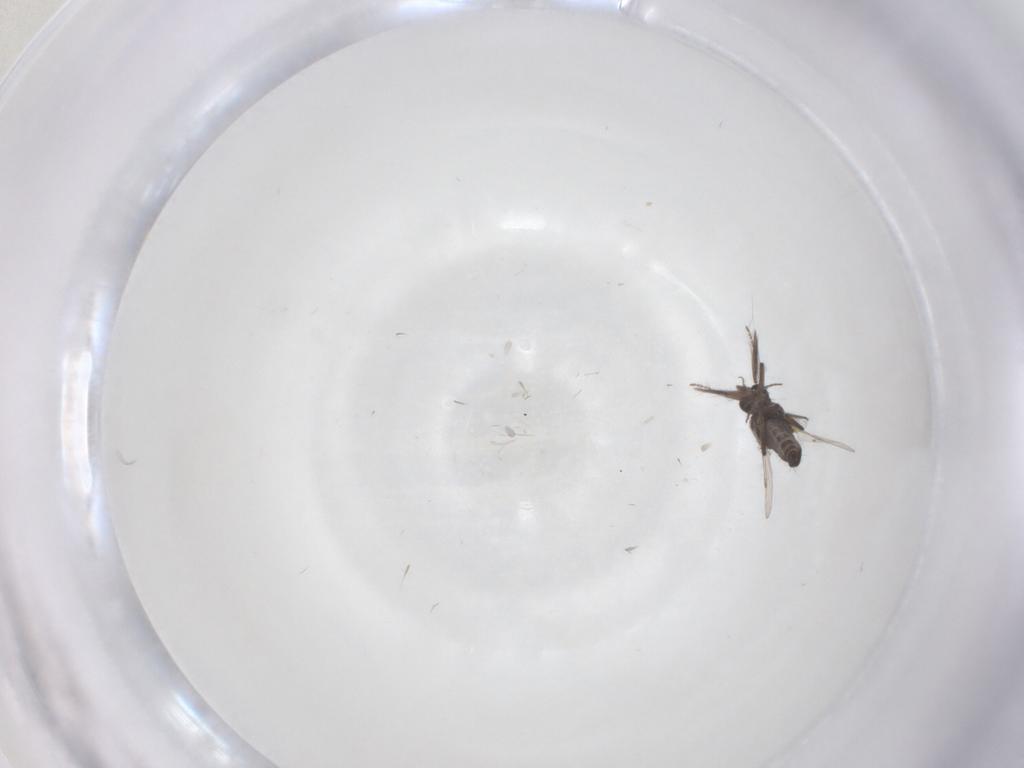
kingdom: Animalia
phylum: Arthropoda
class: Insecta
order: Diptera
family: Ceratopogonidae
